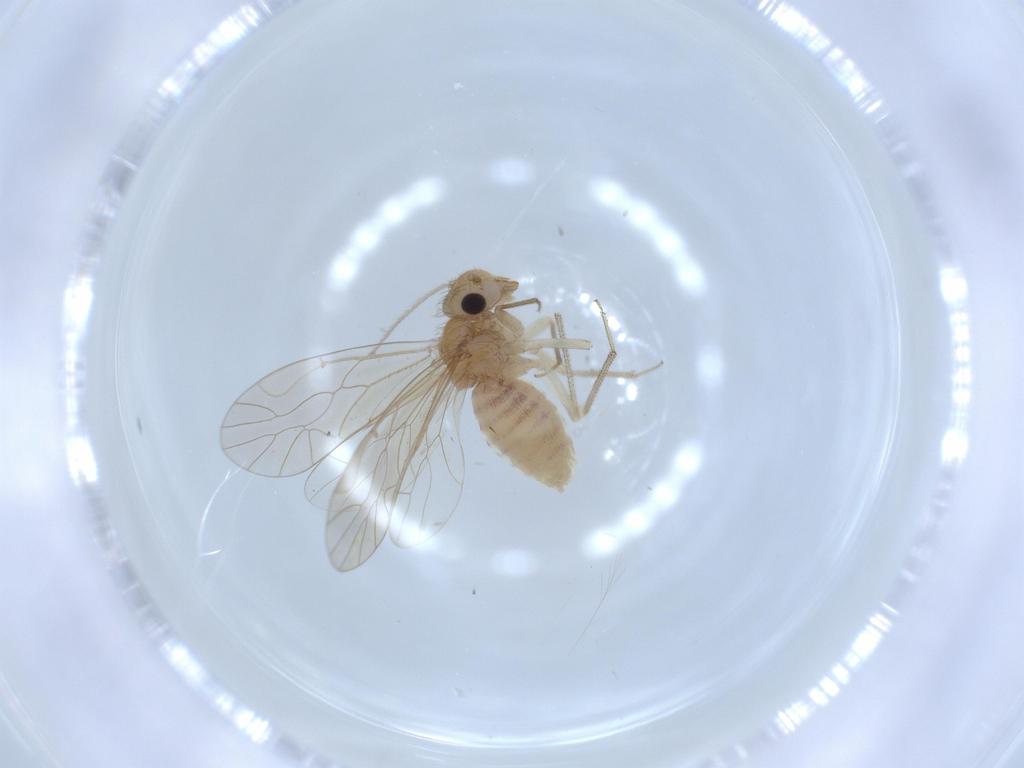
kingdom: Animalia
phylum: Arthropoda
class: Insecta
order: Psocodea
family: Caeciliusidae
